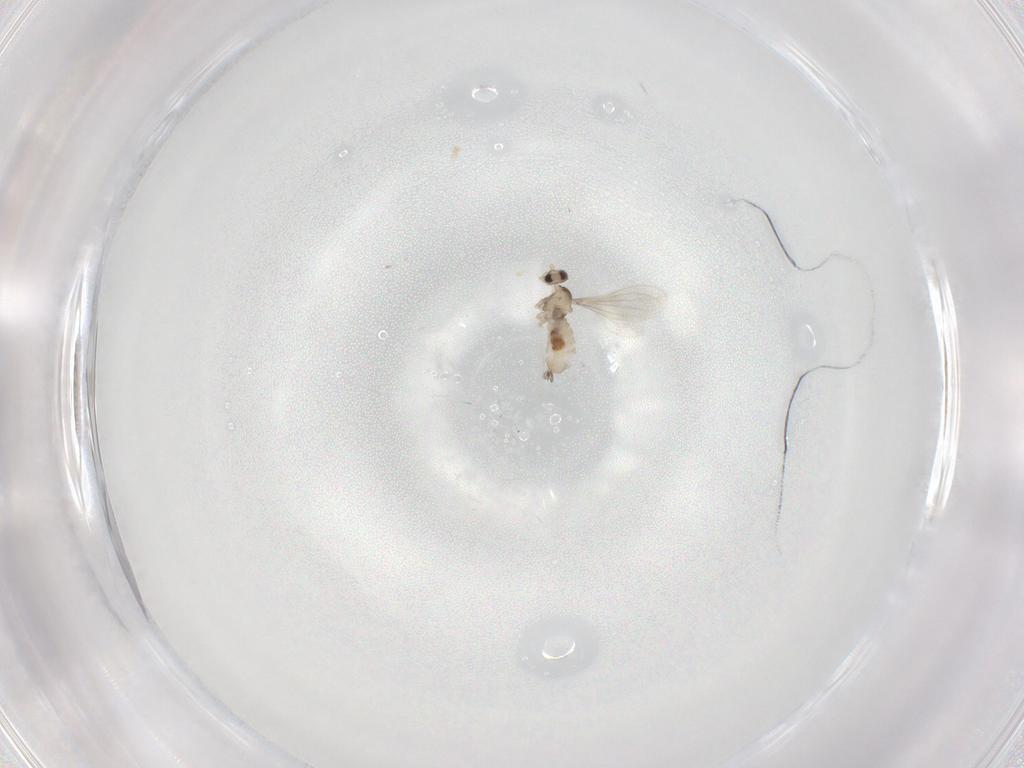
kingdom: Animalia
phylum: Arthropoda
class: Insecta
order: Diptera
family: Cecidomyiidae
